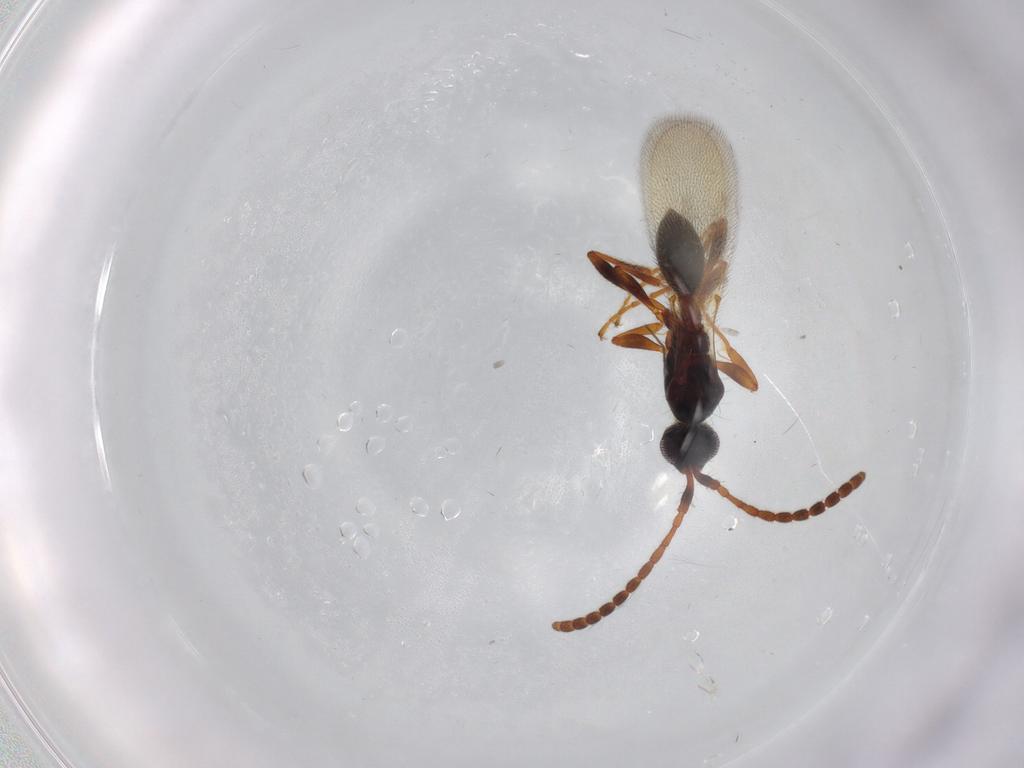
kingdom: Animalia
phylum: Arthropoda
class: Insecta
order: Hymenoptera
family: Diapriidae
